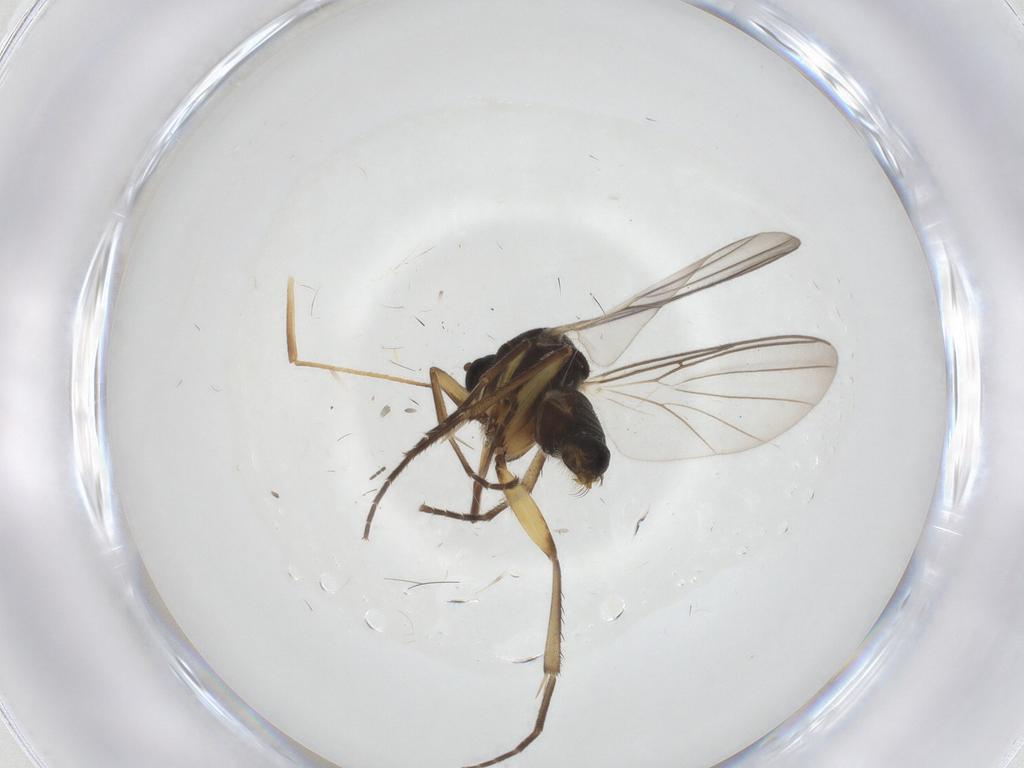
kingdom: Animalia
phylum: Arthropoda
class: Insecta
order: Diptera
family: Mycetophilidae
